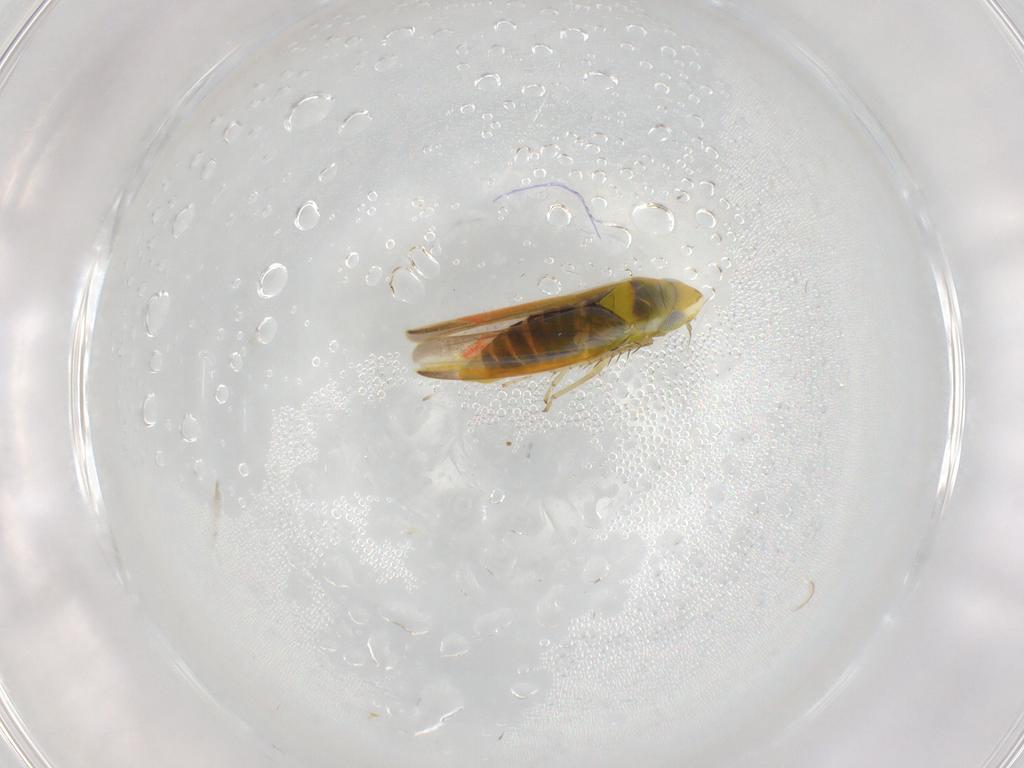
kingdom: Animalia
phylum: Arthropoda
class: Insecta
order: Hemiptera
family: Cicadellidae
